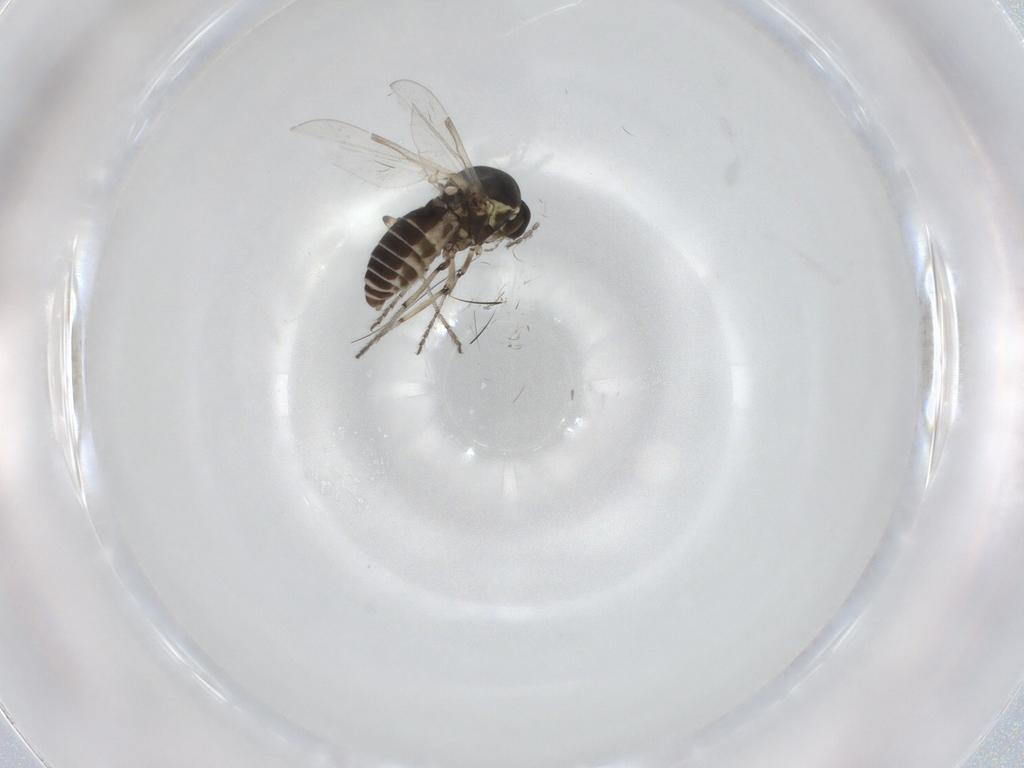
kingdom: Animalia
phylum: Arthropoda
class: Insecta
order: Diptera
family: Ceratopogonidae
